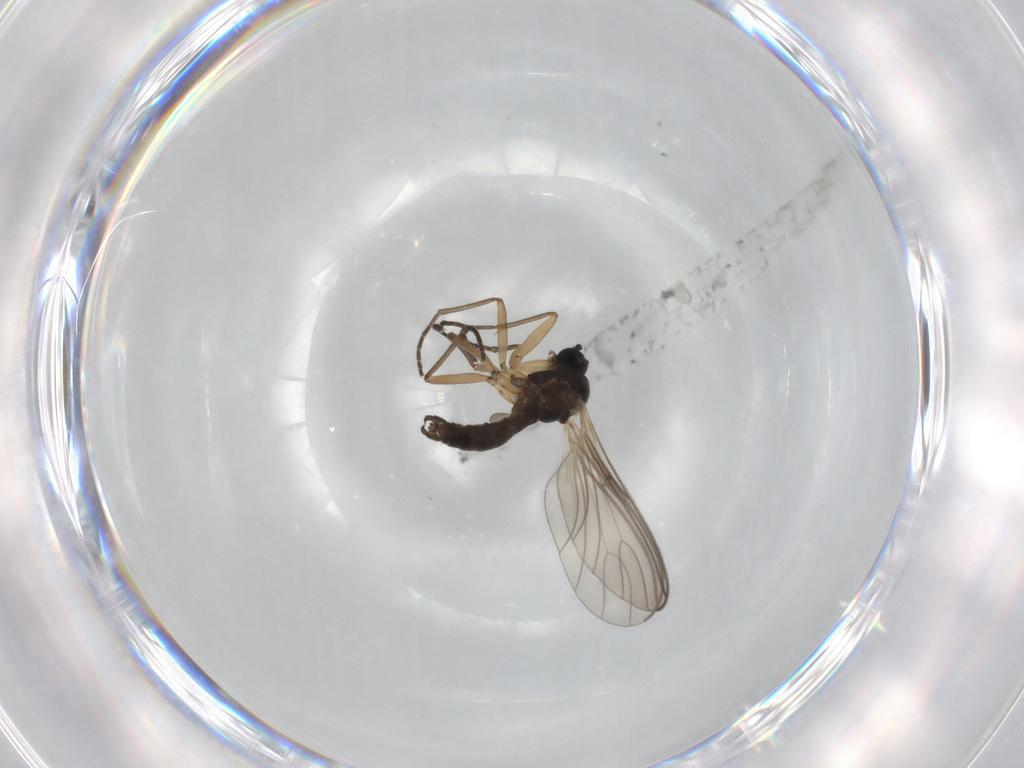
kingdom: Animalia
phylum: Arthropoda
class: Insecta
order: Diptera
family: Sciaridae
